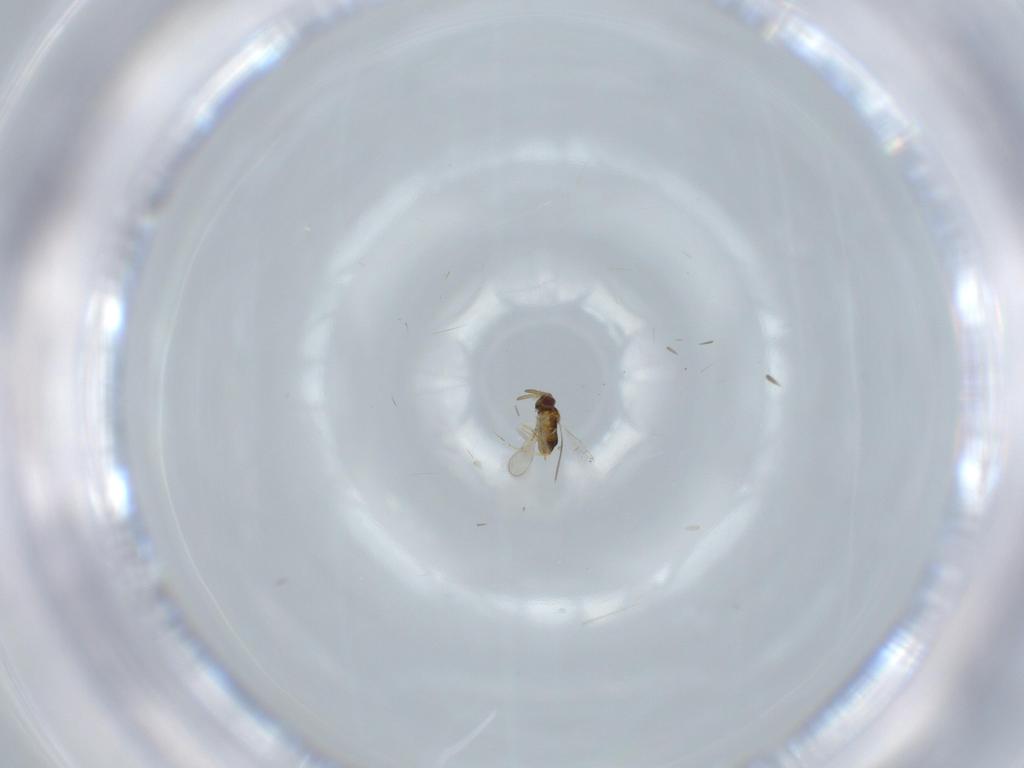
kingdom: Animalia
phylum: Arthropoda
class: Insecta
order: Hymenoptera
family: Aphelinidae
